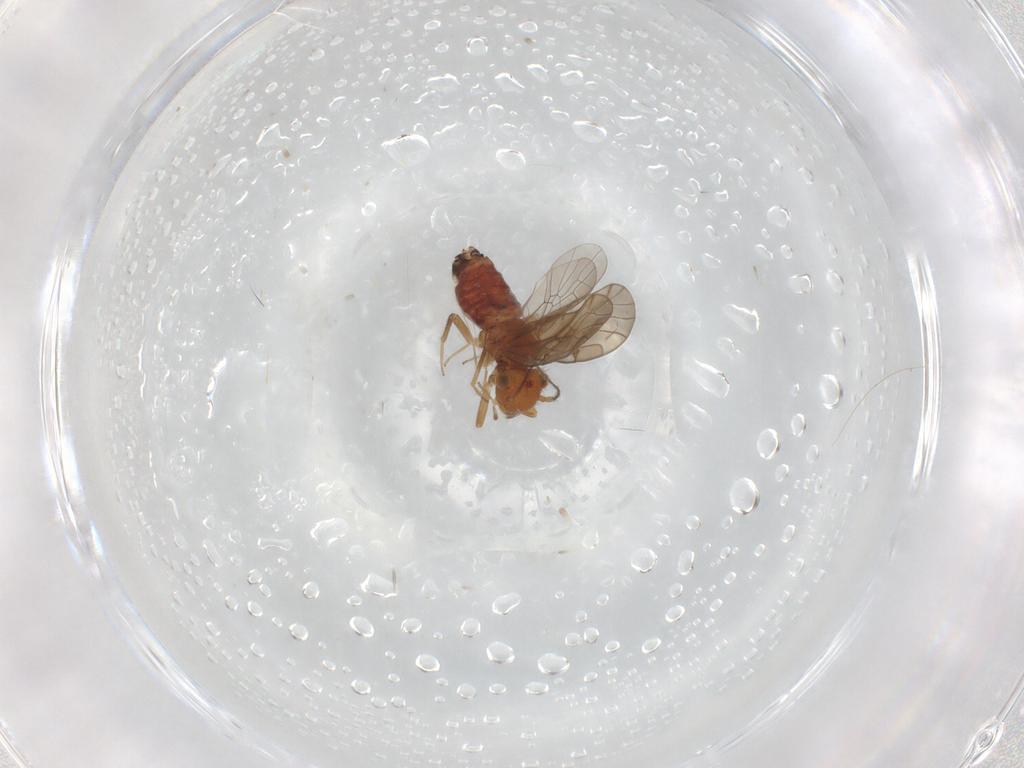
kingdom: Animalia
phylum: Arthropoda
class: Insecta
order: Psocodea
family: Ectopsocidae
